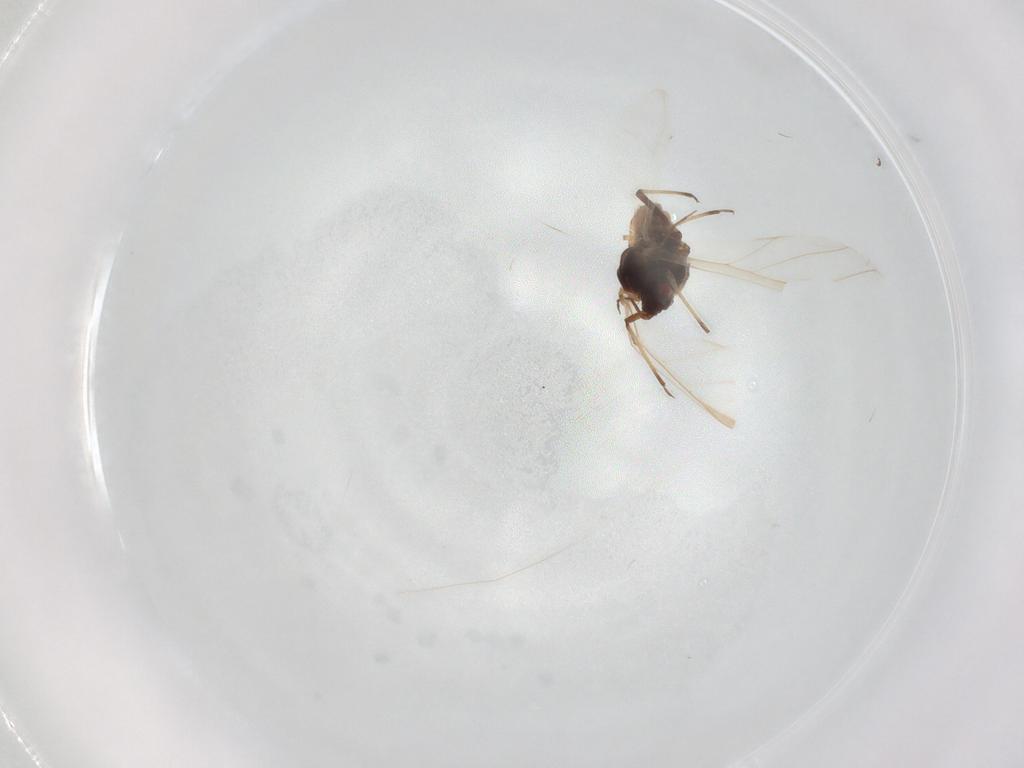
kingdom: Animalia
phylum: Arthropoda
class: Insecta
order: Hemiptera
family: Aphididae
